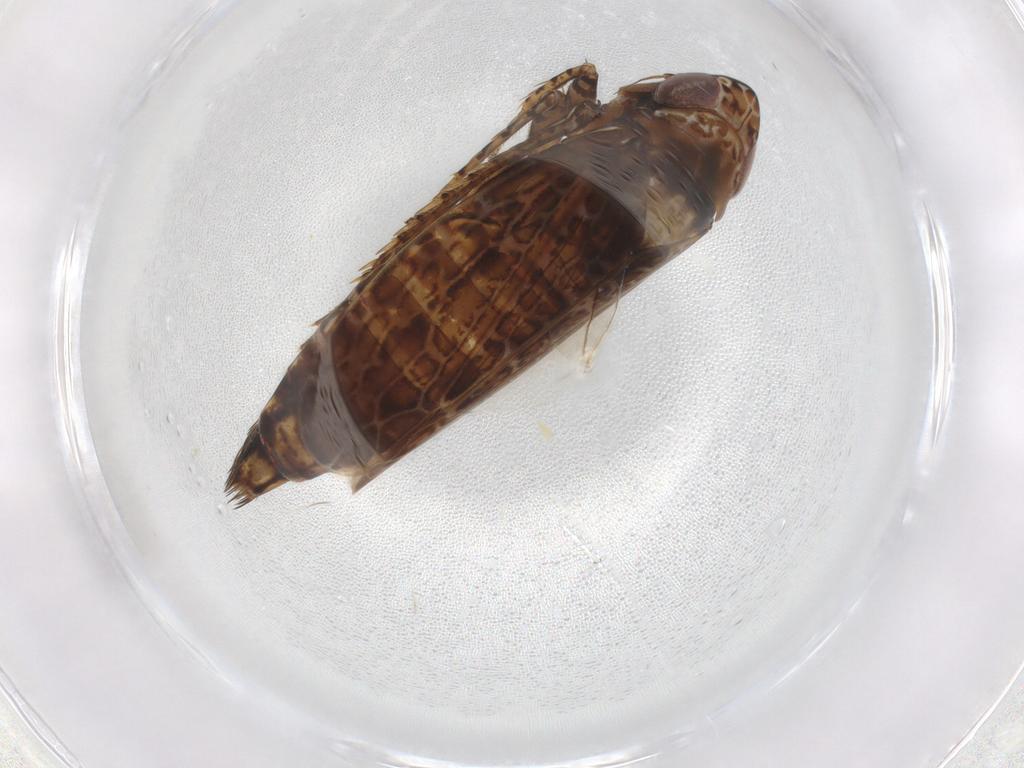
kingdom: Animalia
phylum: Arthropoda
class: Insecta
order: Hemiptera
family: Cicadellidae
